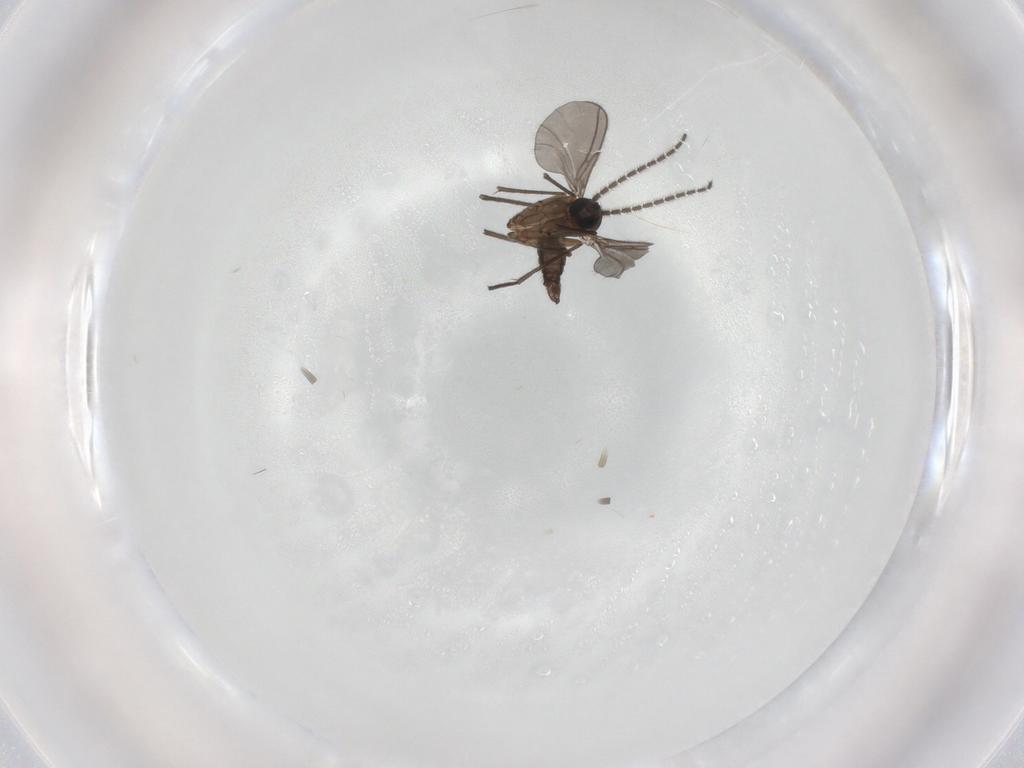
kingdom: Animalia
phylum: Arthropoda
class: Insecta
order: Diptera
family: Sciaridae
